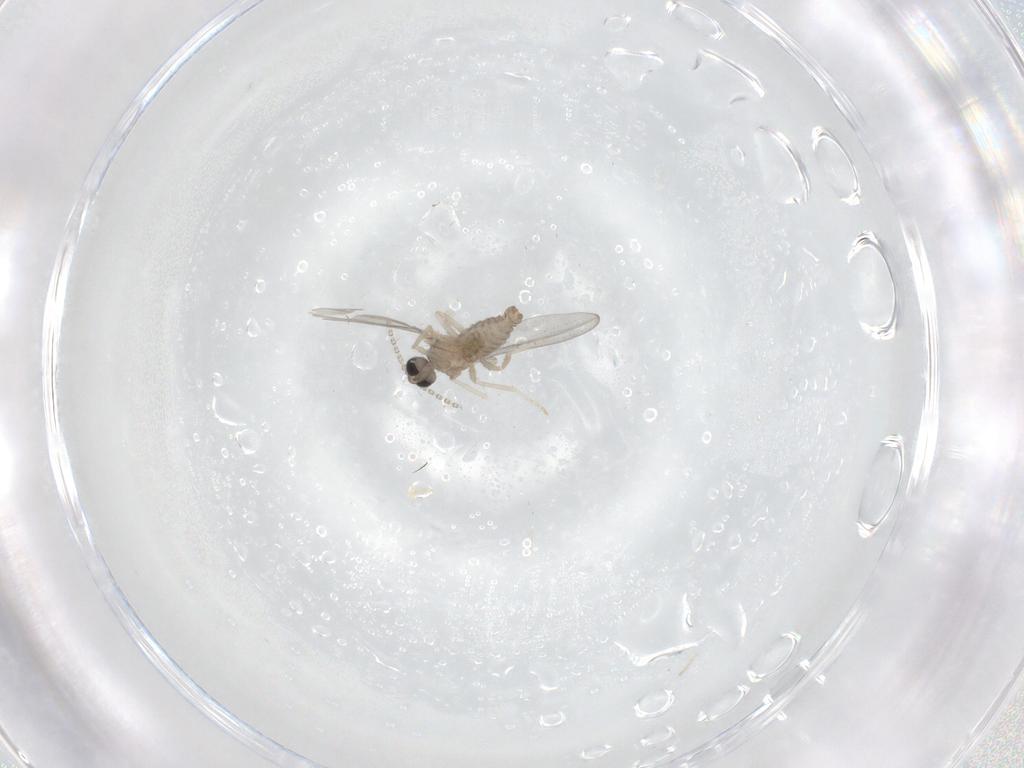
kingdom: Animalia
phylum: Arthropoda
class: Insecta
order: Diptera
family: Cecidomyiidae
